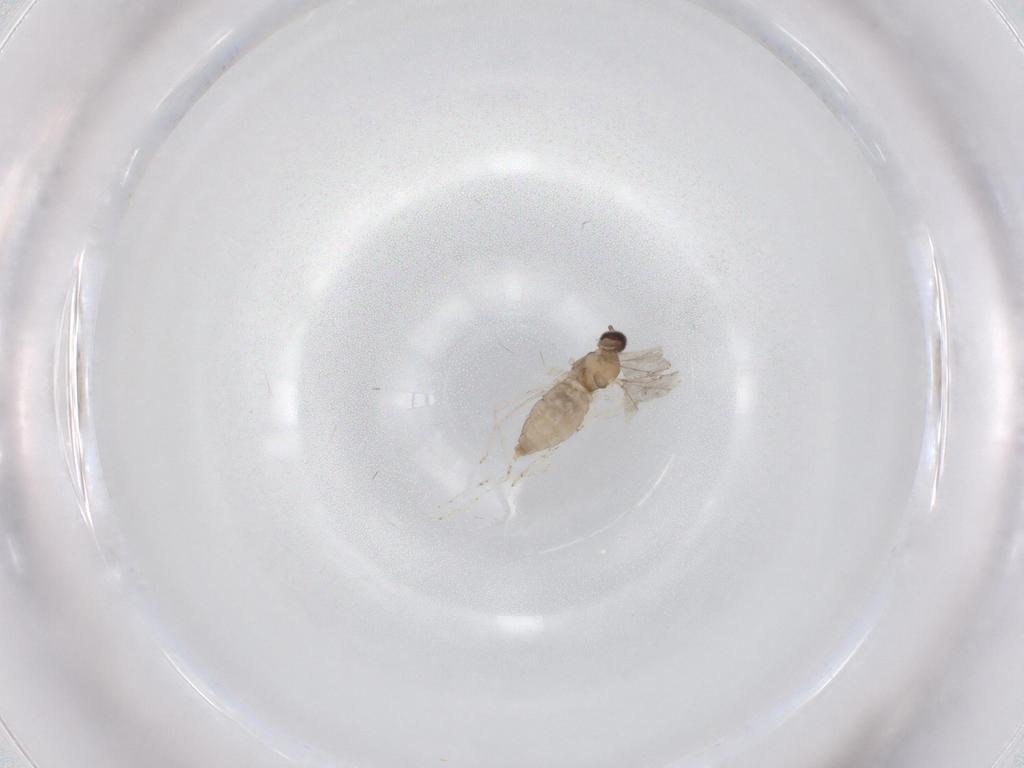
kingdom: Animalia
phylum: Arthropoda
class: Insecta
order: Diptera
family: Cecidomyiidae
